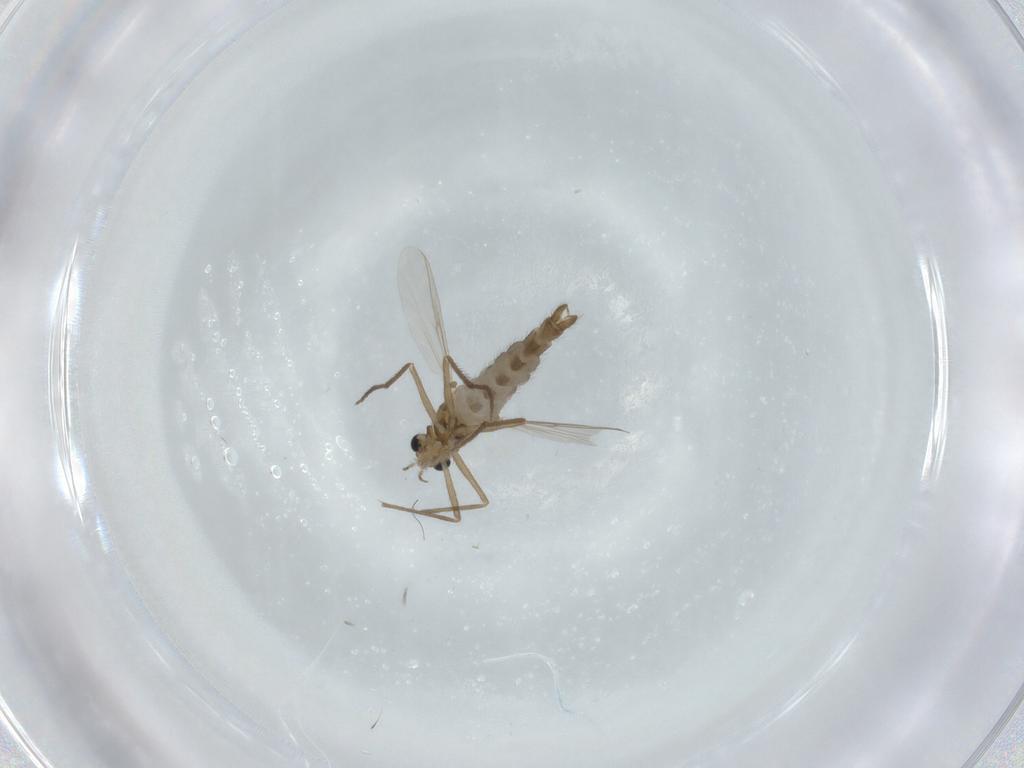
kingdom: Animalia
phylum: Arthropoda
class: Insecta
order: Diptera
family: Chironomidae
